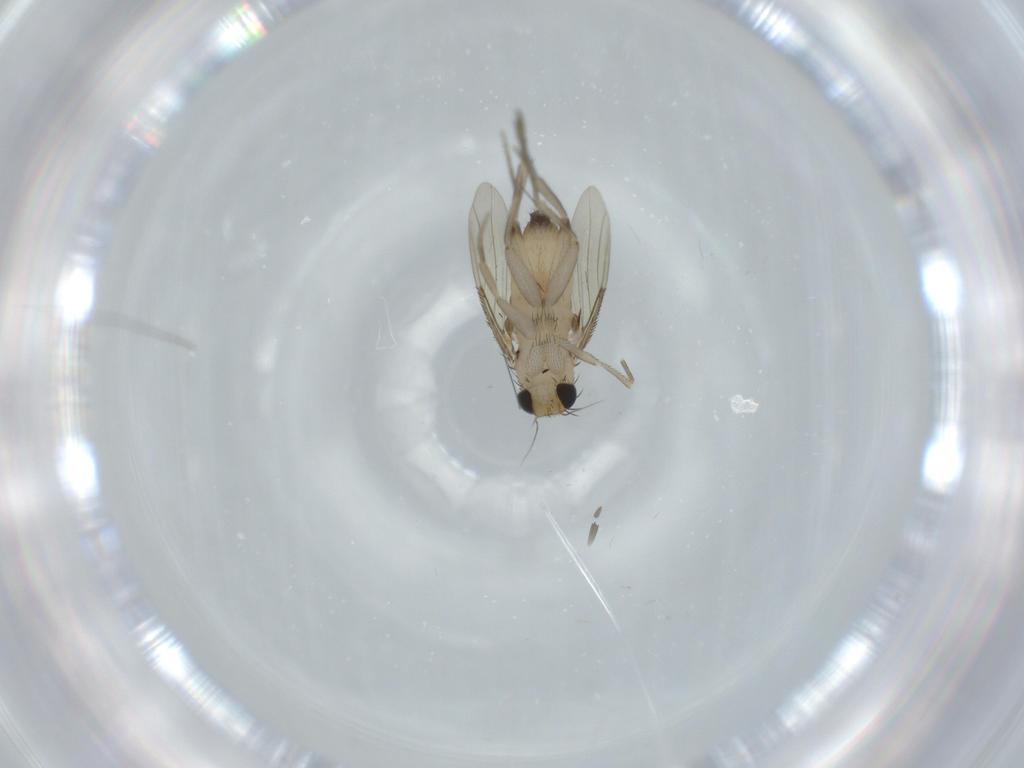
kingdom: Animalia
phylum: Arthropoda
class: Insecta
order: Diptera
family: Phoridae
